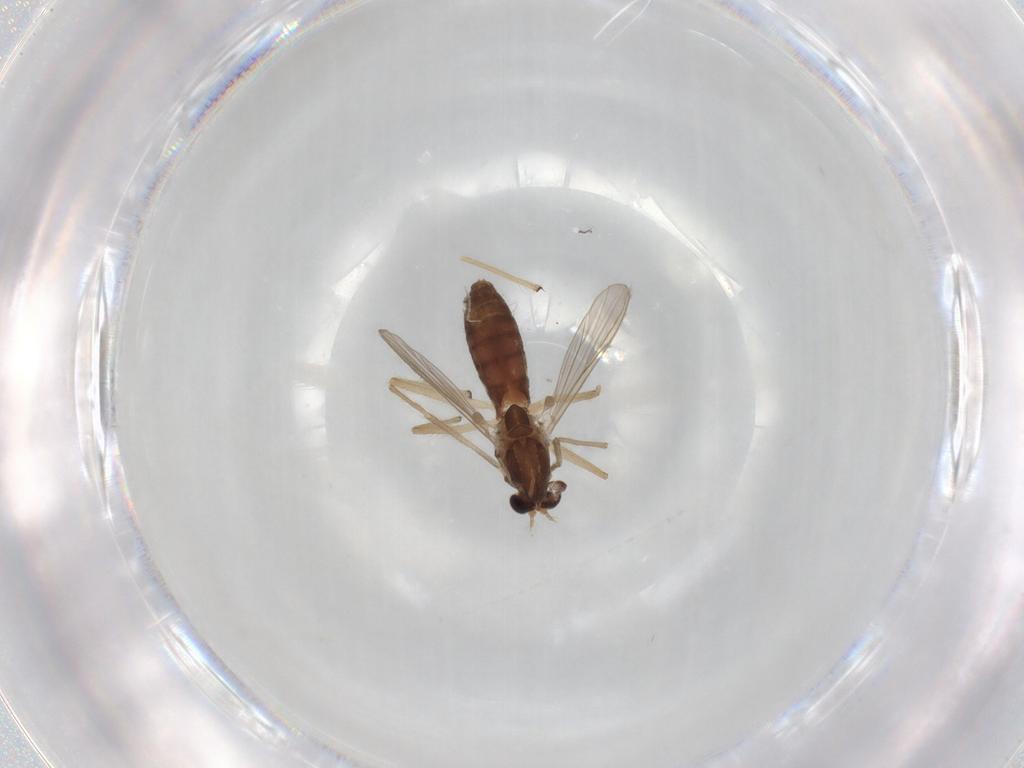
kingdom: Animalia
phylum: Arthropoda
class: Insecta
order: Diptera
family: Chironomidae
